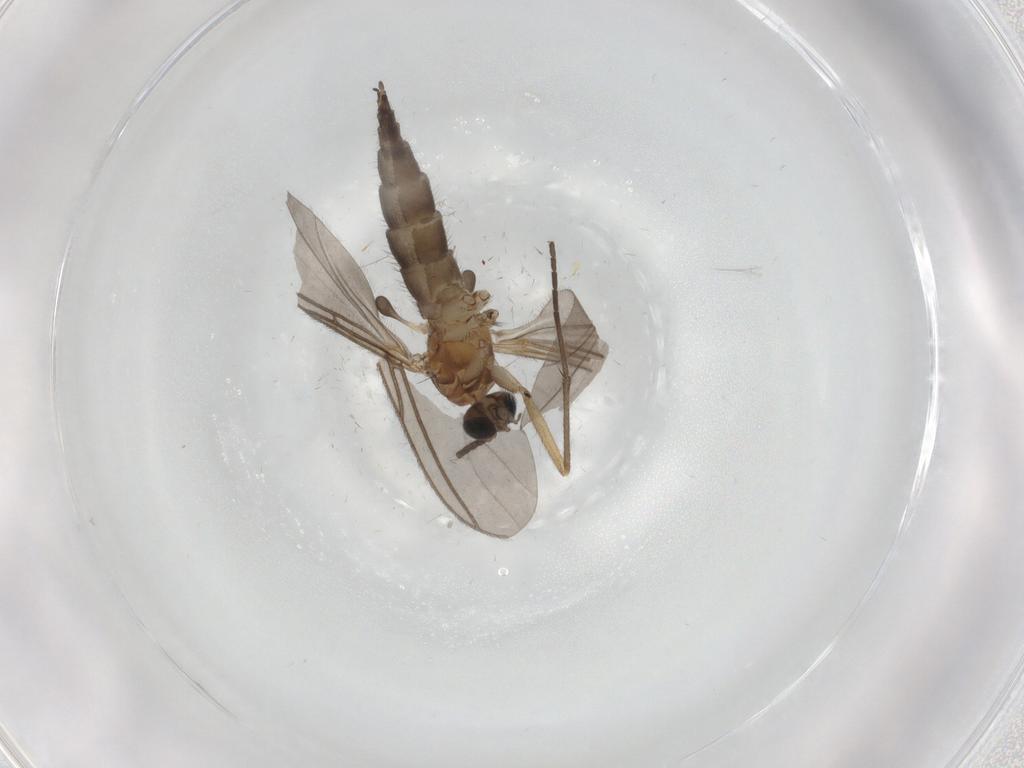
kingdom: Animalia
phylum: Arthropoda
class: Insecta
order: Diptera
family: Sciaridae
